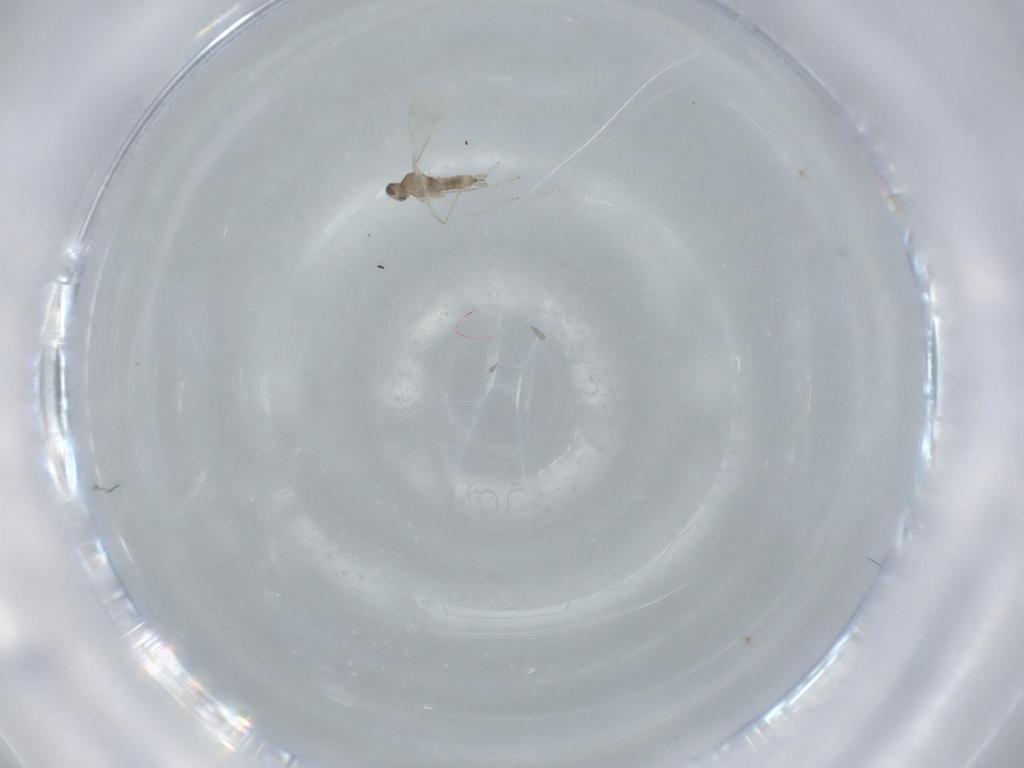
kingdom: Animalia
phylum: Arthropoda
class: Insecta
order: Diptera
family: Sciaridae
